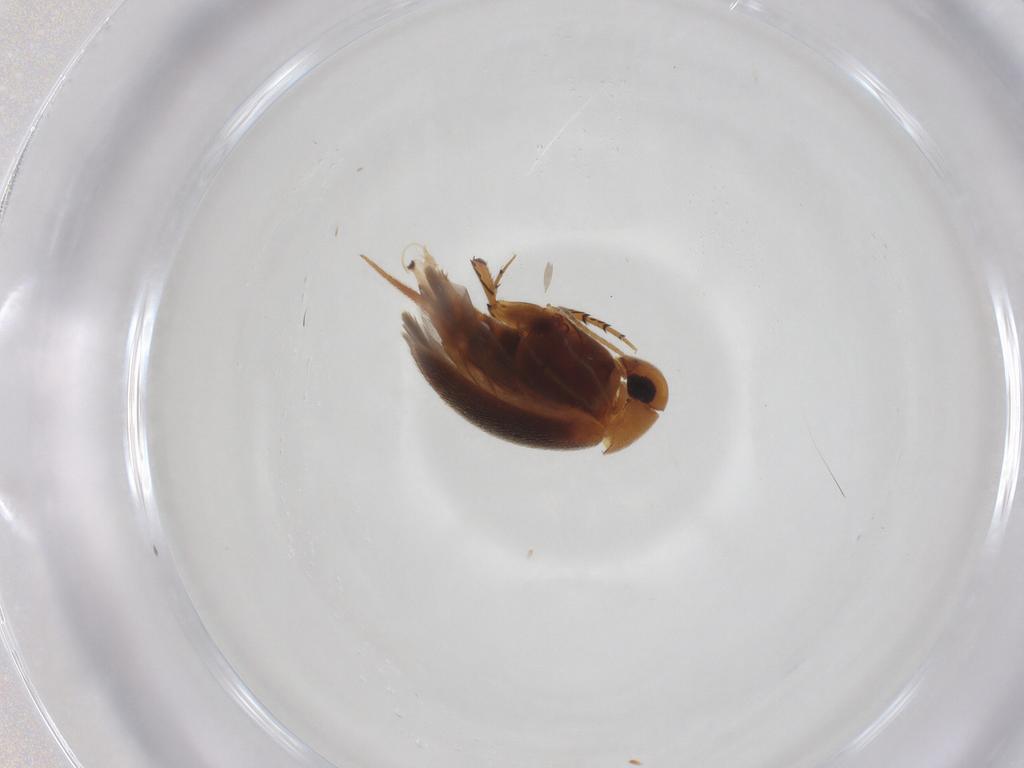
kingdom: Animalia
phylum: Arthropoda
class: Insecta
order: Coleoptera
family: Mordellidae
